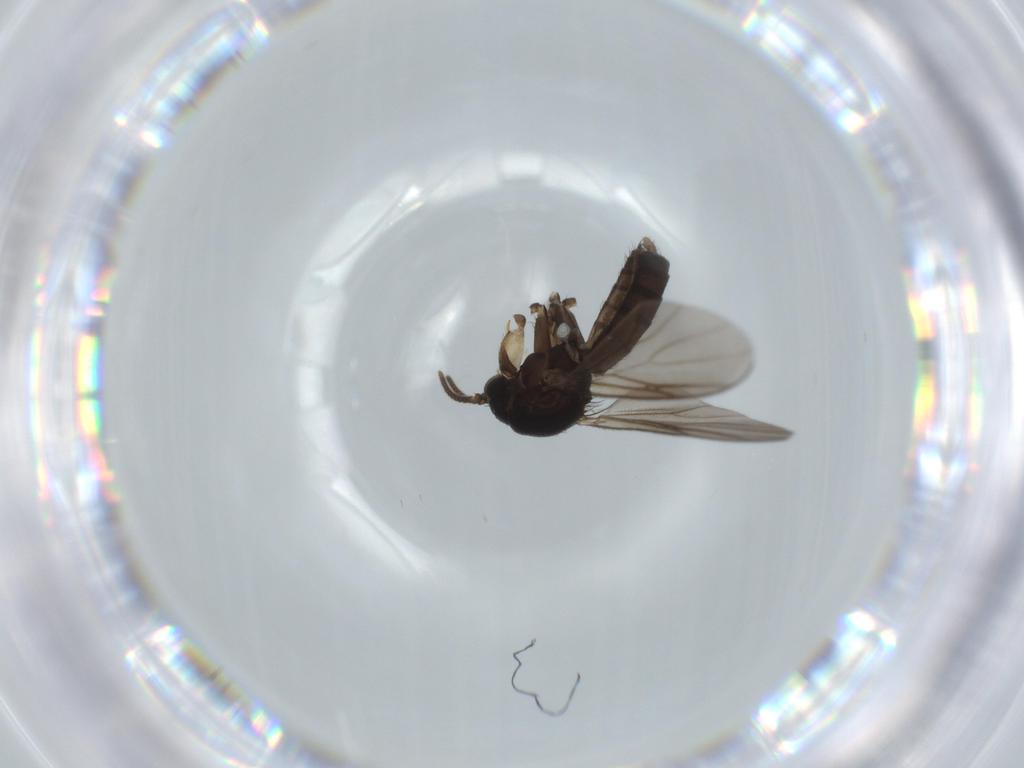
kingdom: Animalia
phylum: Arthropoda
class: Insecta
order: Diptera
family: Mycetophilidae
